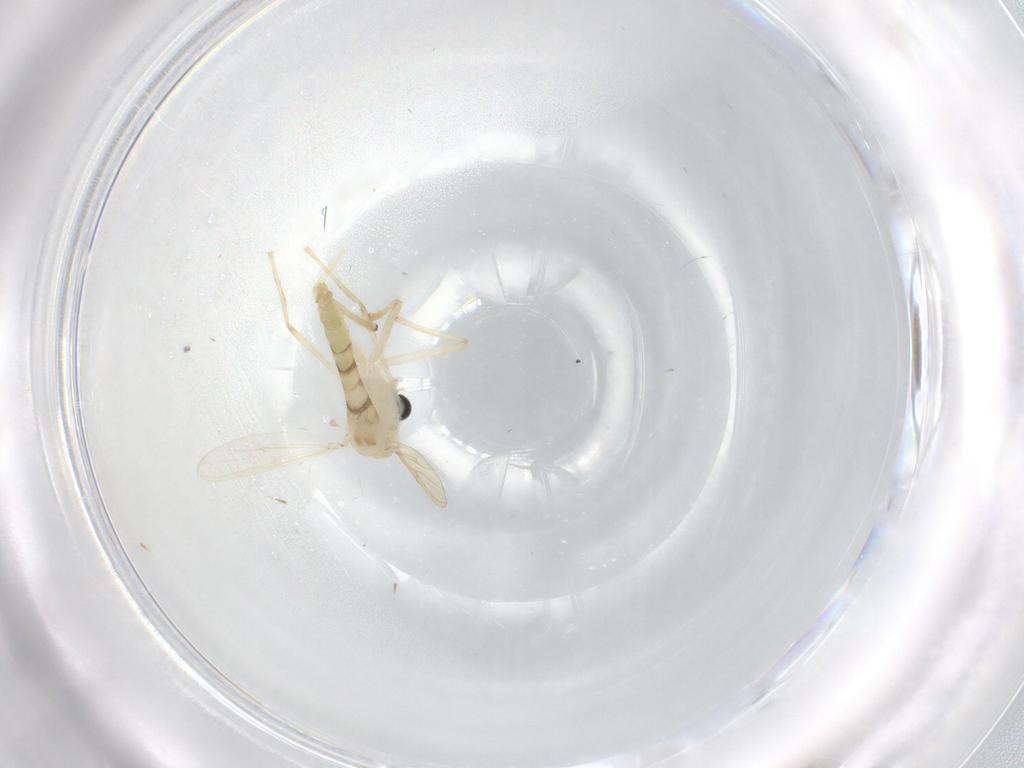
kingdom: Animalia
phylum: Arthropoda
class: Insecta
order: Diptera
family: Chironomidae
